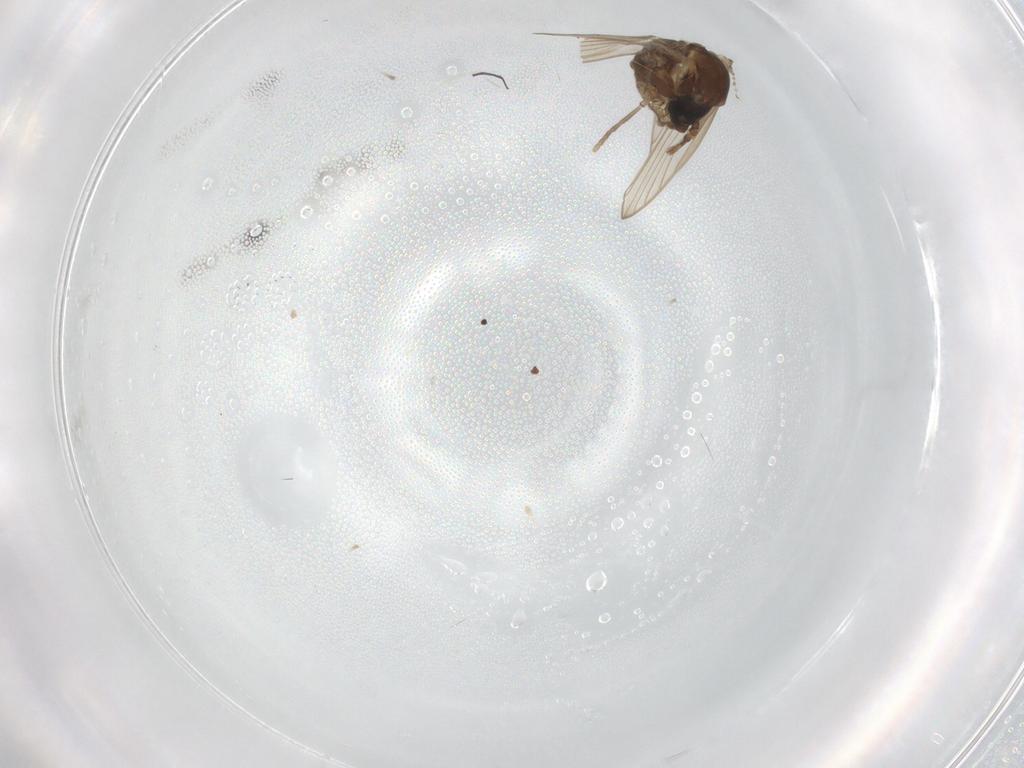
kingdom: Animalia
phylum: Arthropoda
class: Insecta
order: Diptera
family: Psychodidae
